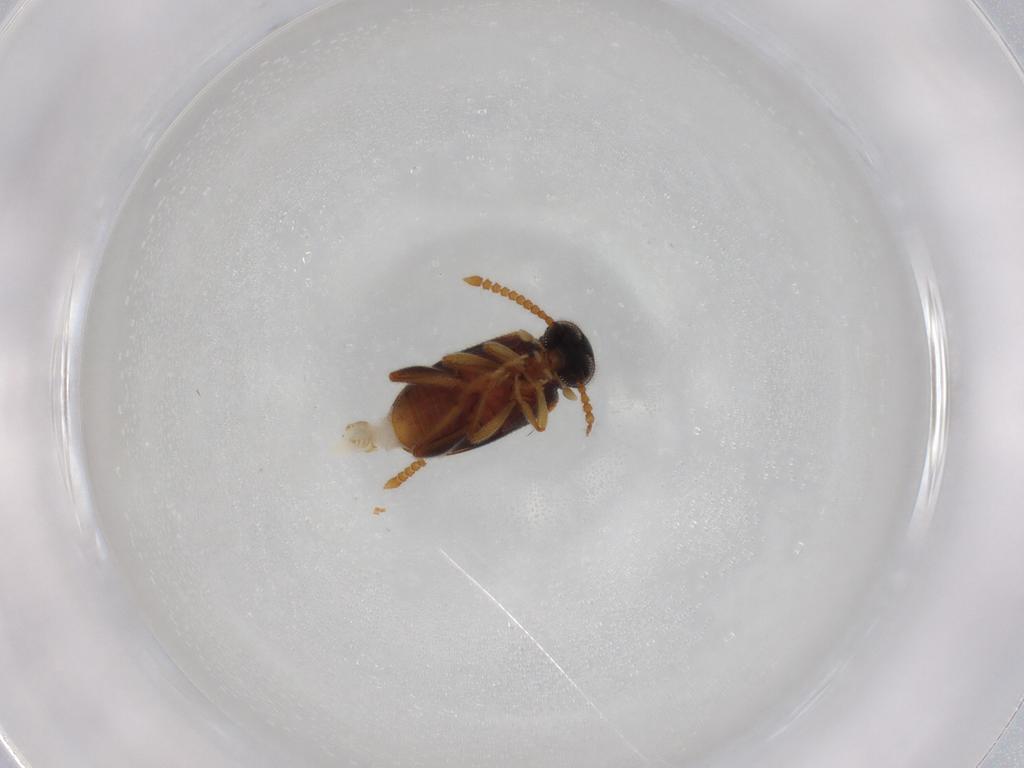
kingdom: Animalia
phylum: Arthropoda
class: Insecta
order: Coleoptera
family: Aderidae
